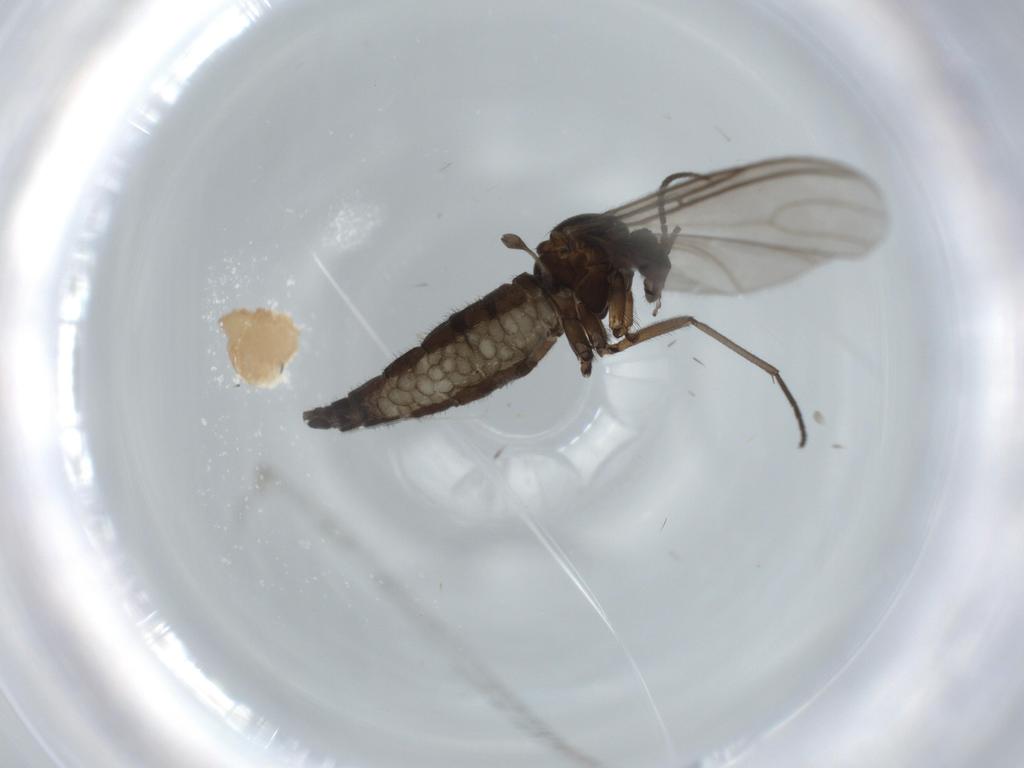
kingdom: Animalia
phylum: Arthropoda
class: Insecta
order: Diptera
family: Sciaridae
